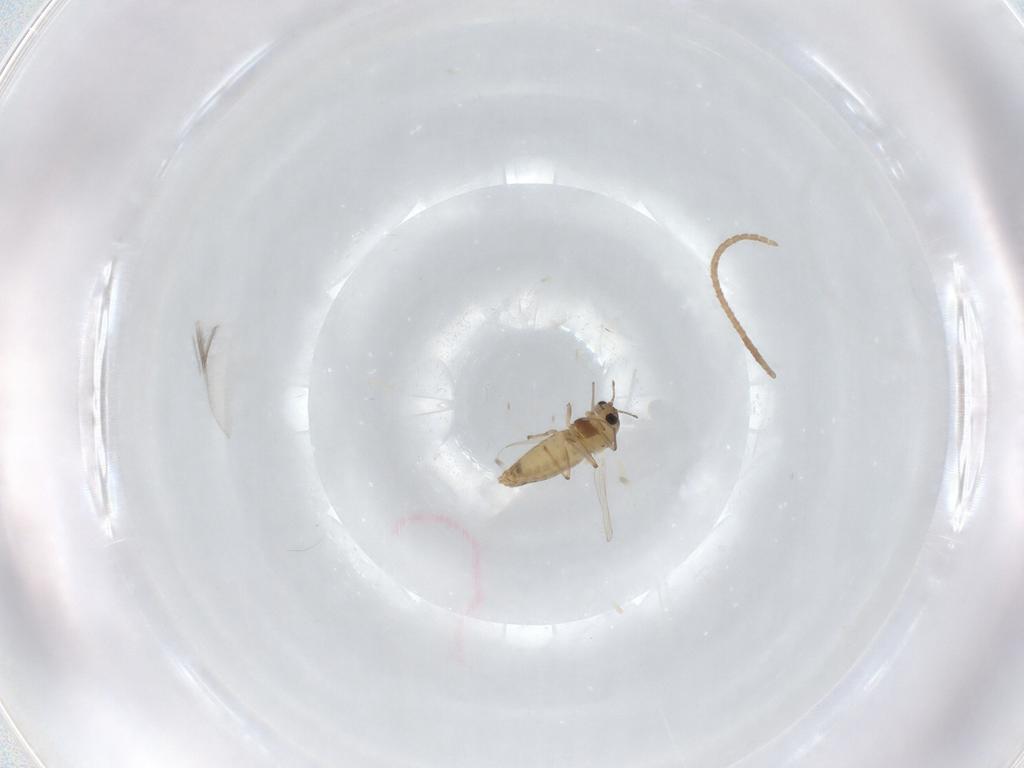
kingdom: Animalia
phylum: Arthropoda
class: Insecta
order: Diptera
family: Chironomidae
